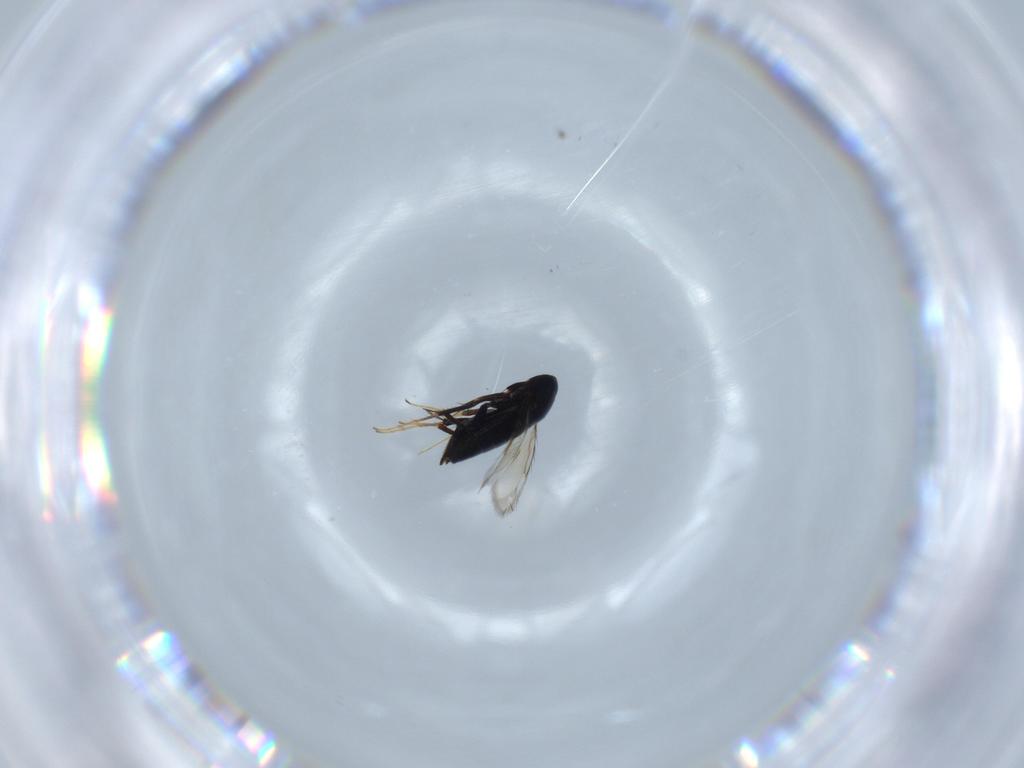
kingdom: Animalia
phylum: Arthropoda
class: Insecta
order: Hymenoptera
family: Signiphoridae
